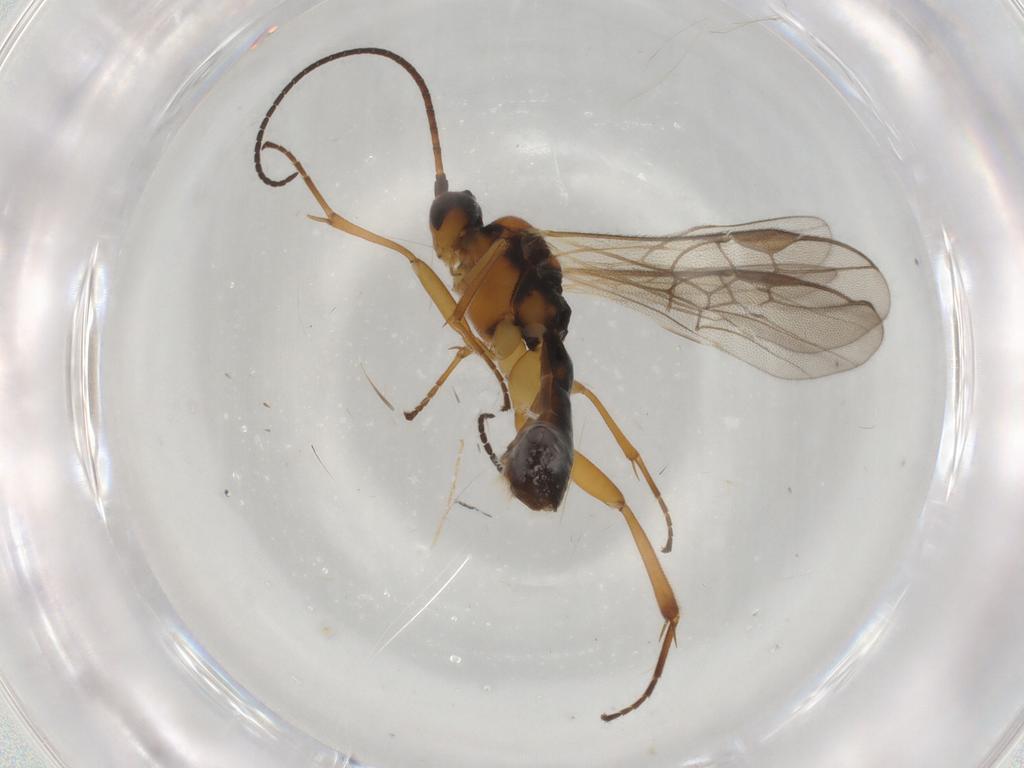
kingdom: Animalia
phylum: Arthropoda
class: Insecta
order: Hymenoptera
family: Braconidae
